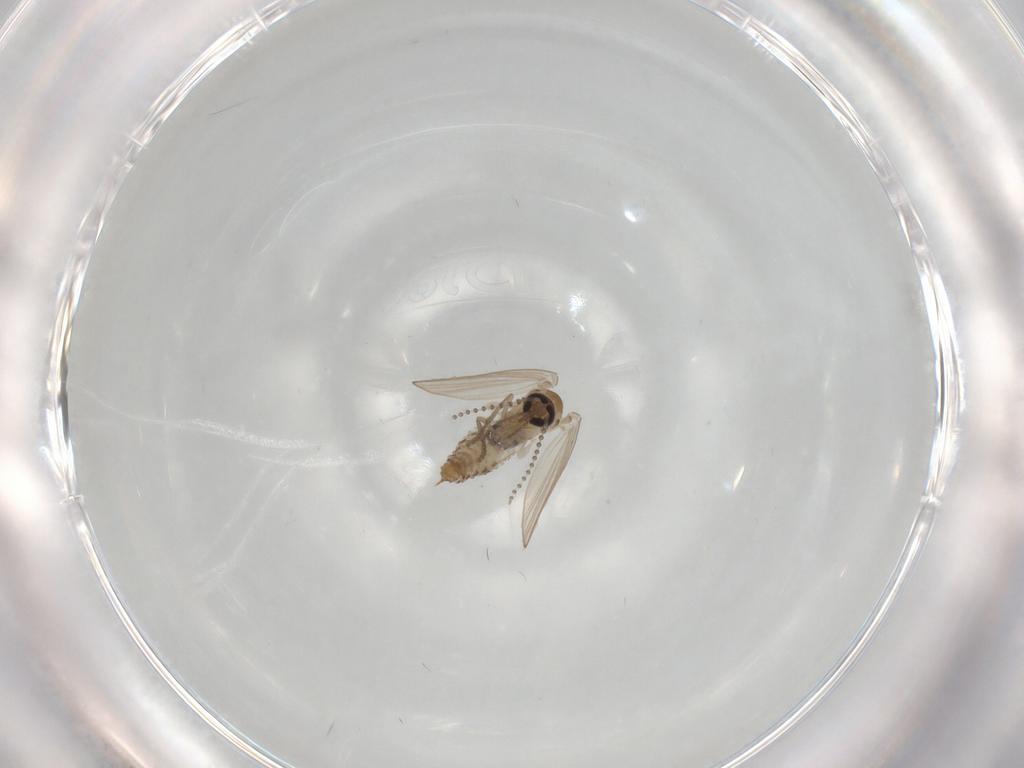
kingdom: Animalia
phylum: Arthropoda
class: Insecta
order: Diptera
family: Psychodidae
